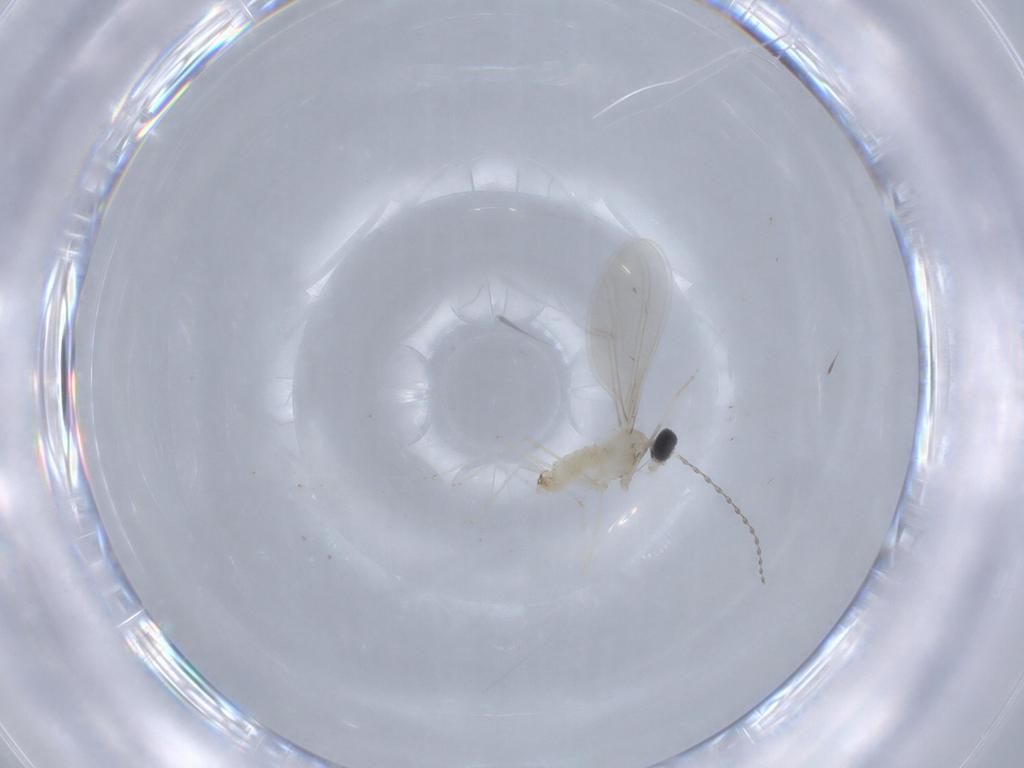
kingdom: Animalia
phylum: Arthropoda
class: Insecta
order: Diptera
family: Cecidomyiidae
